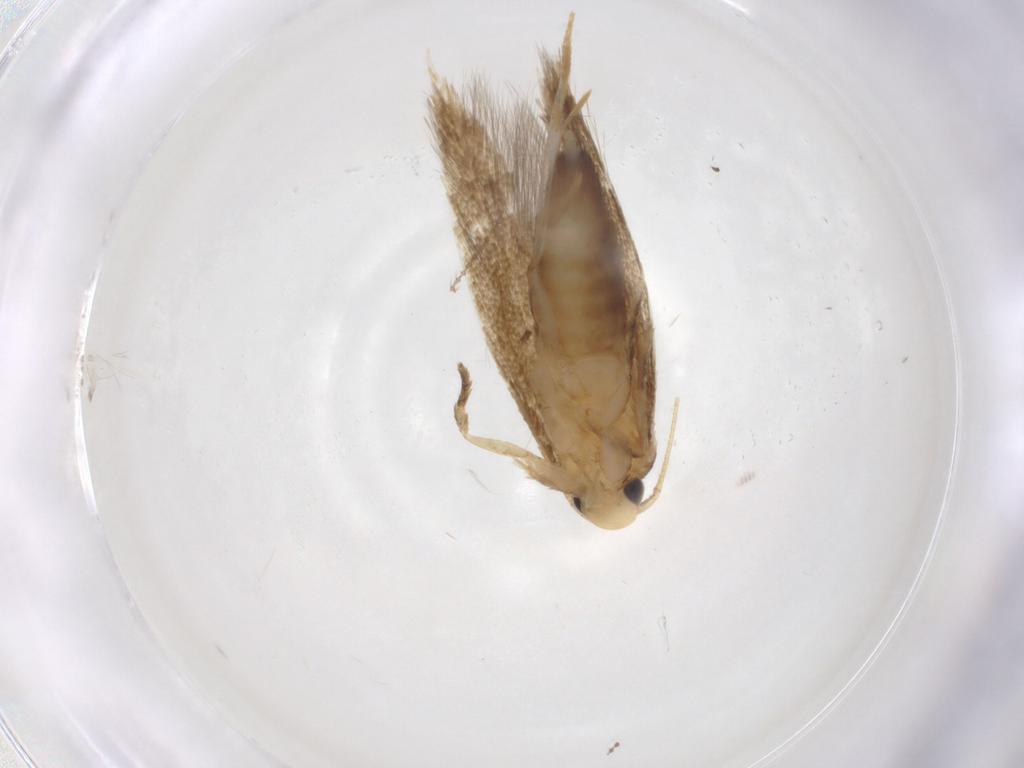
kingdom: Animalia
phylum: Arthropoda
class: Insecta
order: Lepidoptera
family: Tineidae
